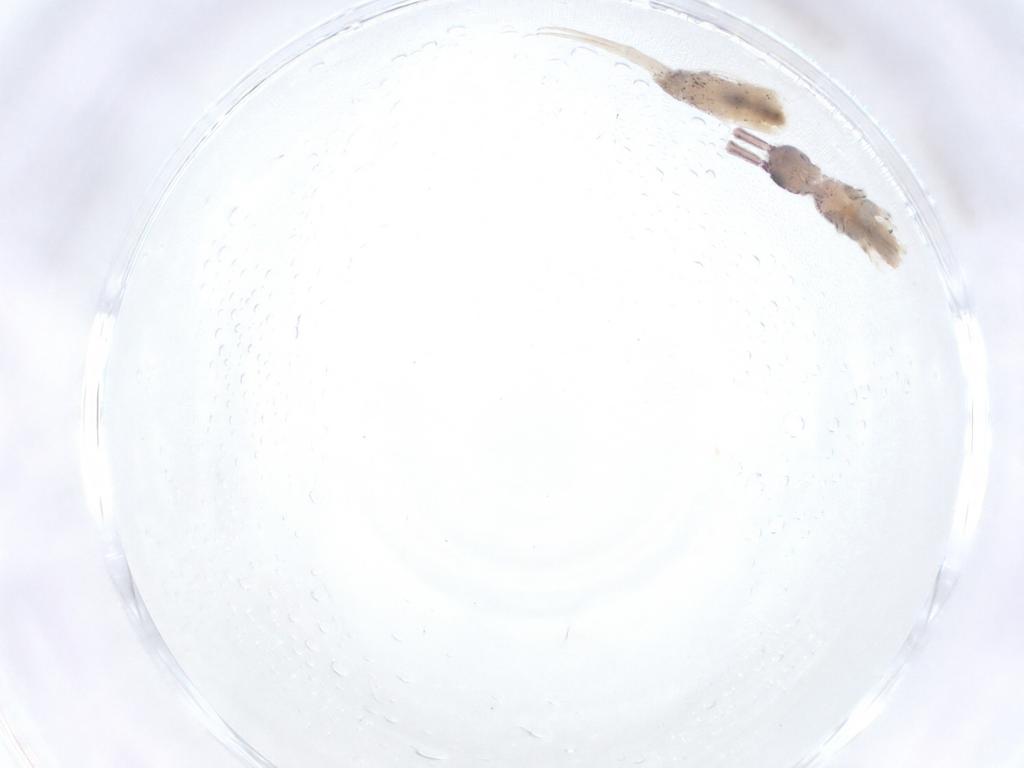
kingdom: Animalia
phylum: Arthropoda
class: Collembola
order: Entomobryomorpha
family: Entomobryidae
